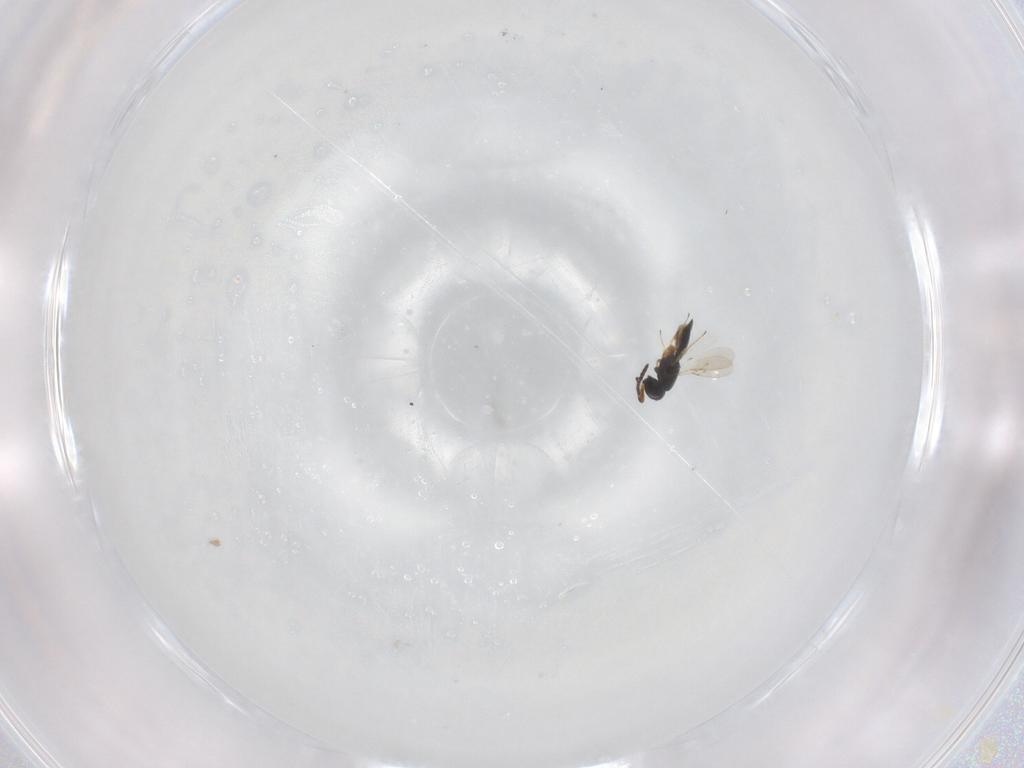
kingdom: Animalia
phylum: Arthropoda
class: Insecta
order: Hymenoptera
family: Scelionidae
